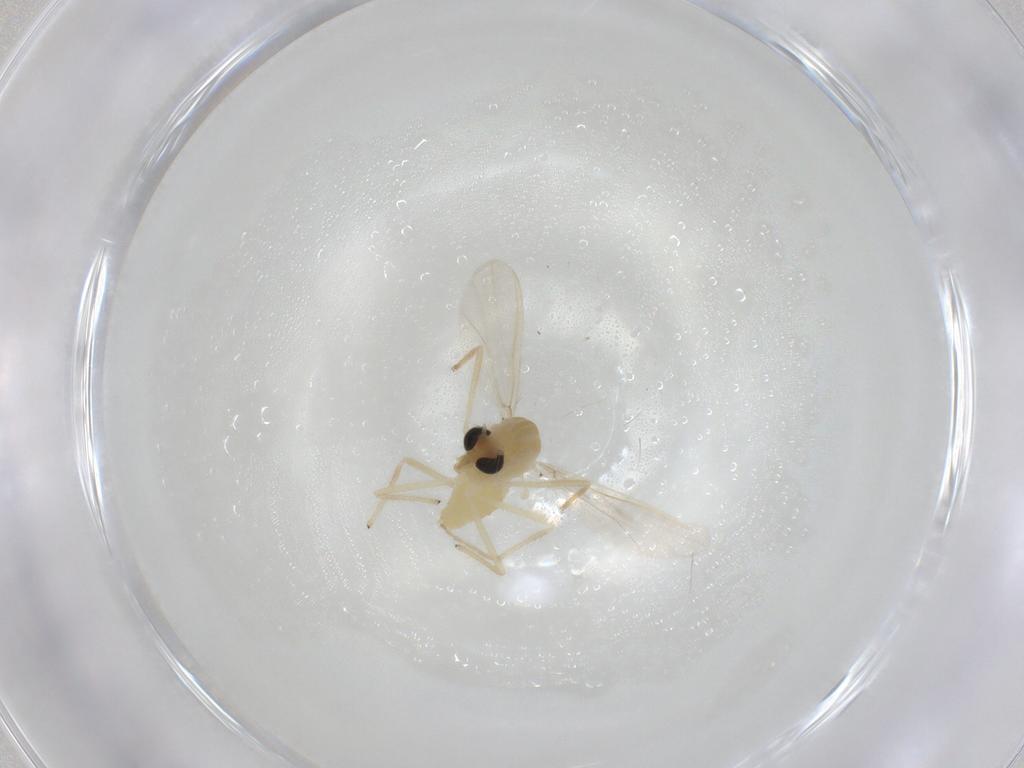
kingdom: Animalia
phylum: Arthropoda
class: Insecta
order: Diptera
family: Chironomidae
